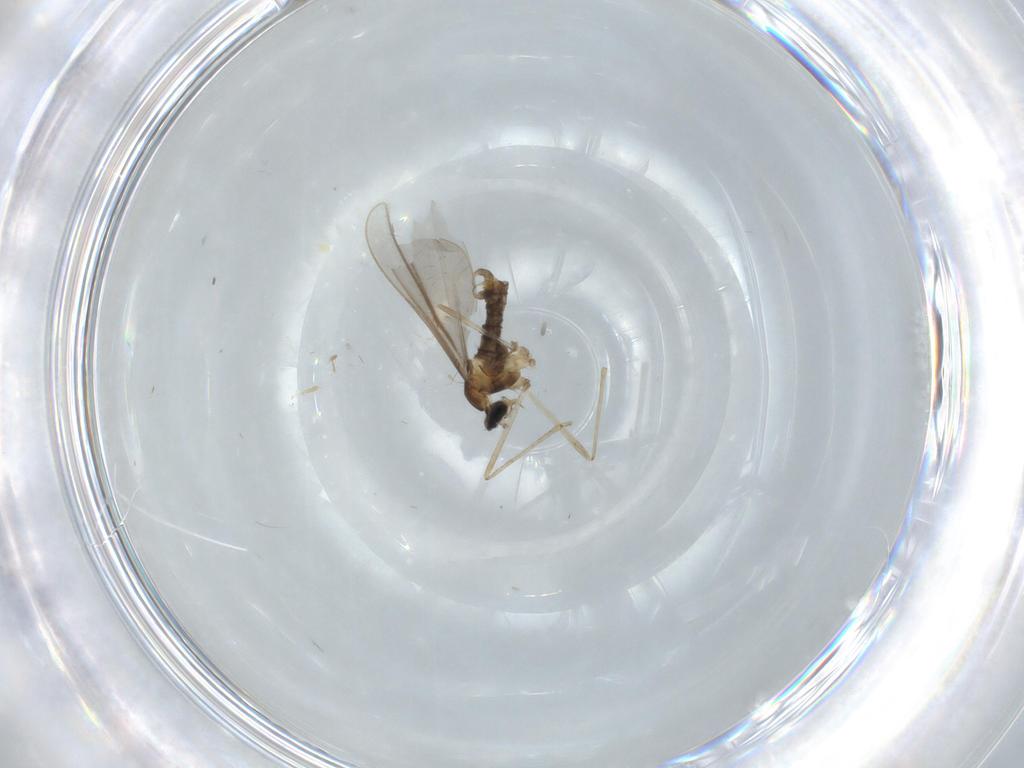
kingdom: Animalia
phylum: Arthropoda
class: Insecta
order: Diptera
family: Cecidomyiidae
